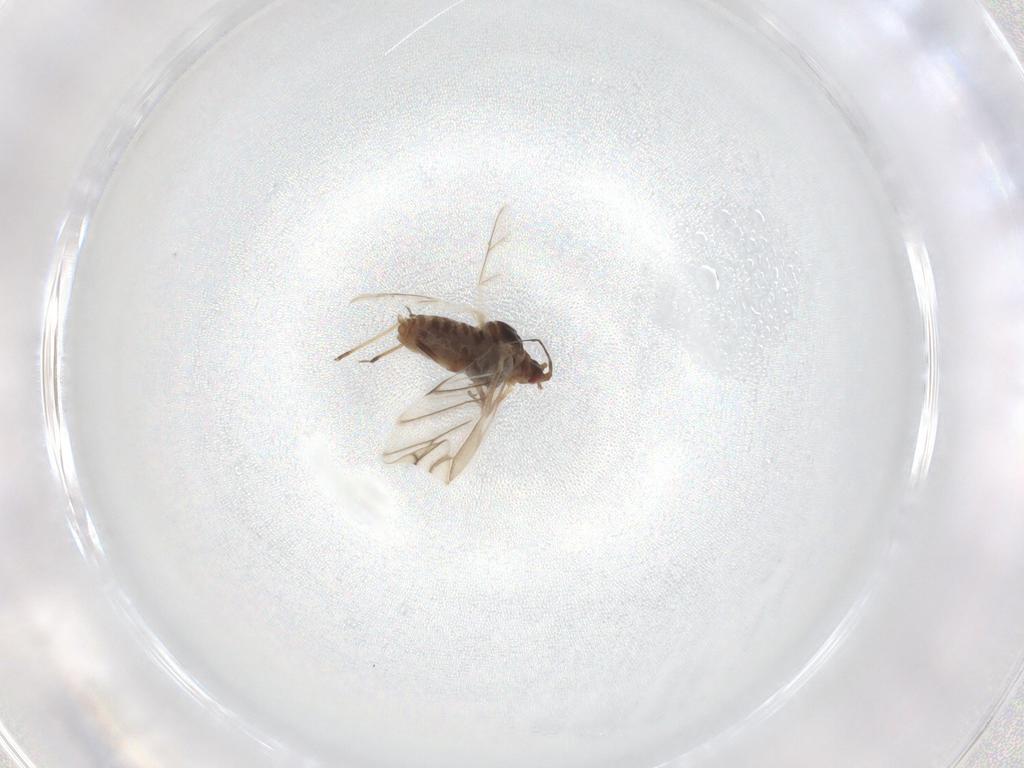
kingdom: Animalia
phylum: Arthropoda
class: Insecta
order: Hemiptera
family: Aphididae
